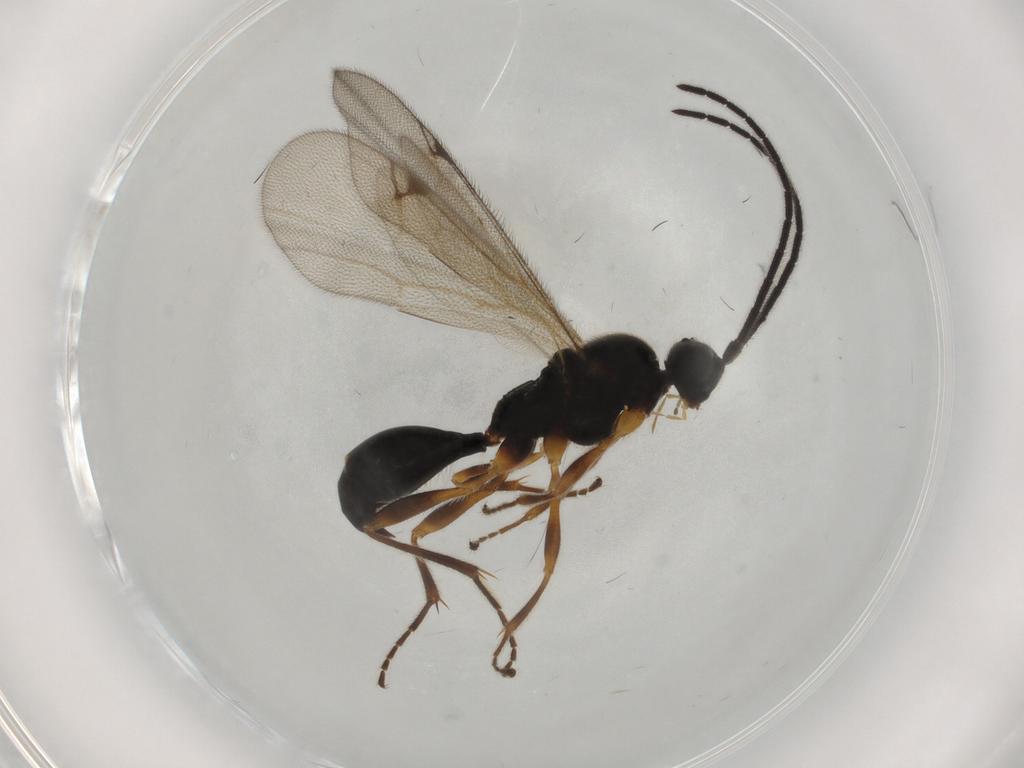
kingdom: Animalia
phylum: Arthropoda
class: Insecta
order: Hymenoptera
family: Proctotrupidae
